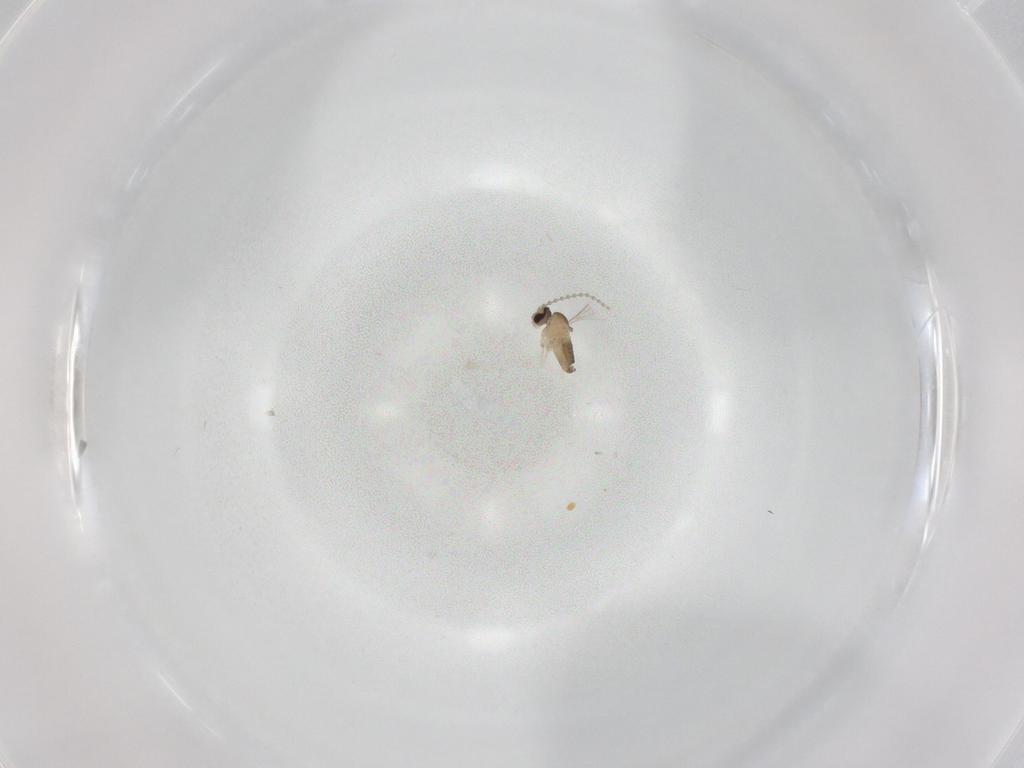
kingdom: Animalia
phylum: Arthropoda
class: Insecta
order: Diptera
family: Cecidomyiidae
